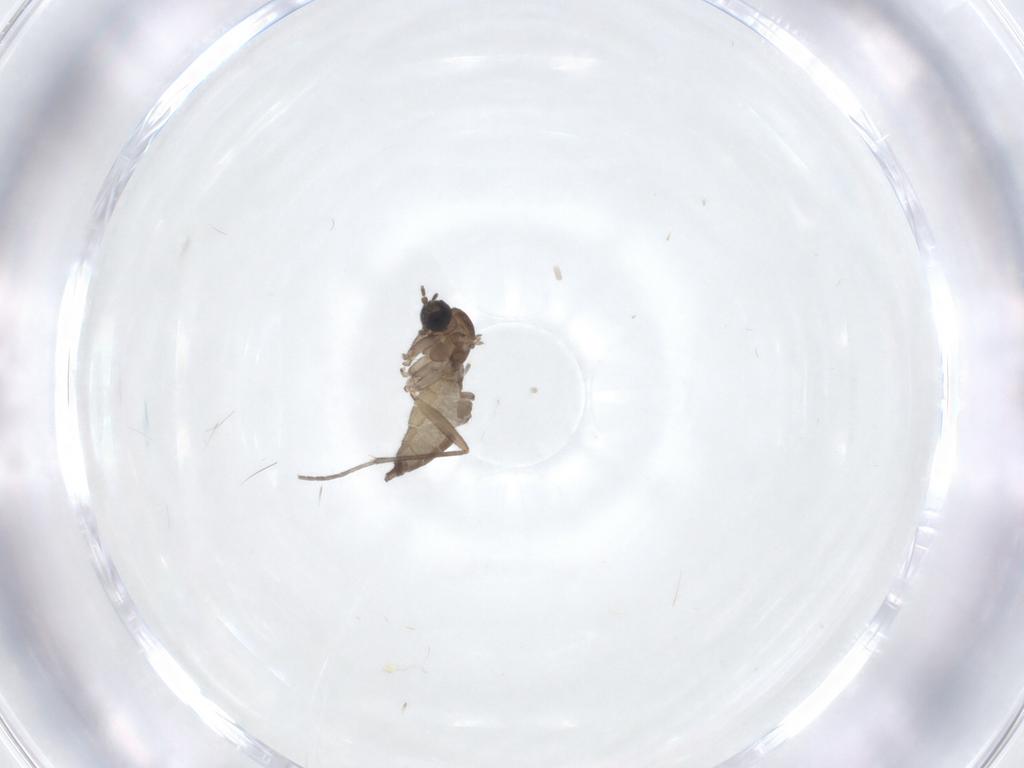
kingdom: Animalia
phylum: Arthropoda
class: Insecta
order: Diptera
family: Sciaridae
